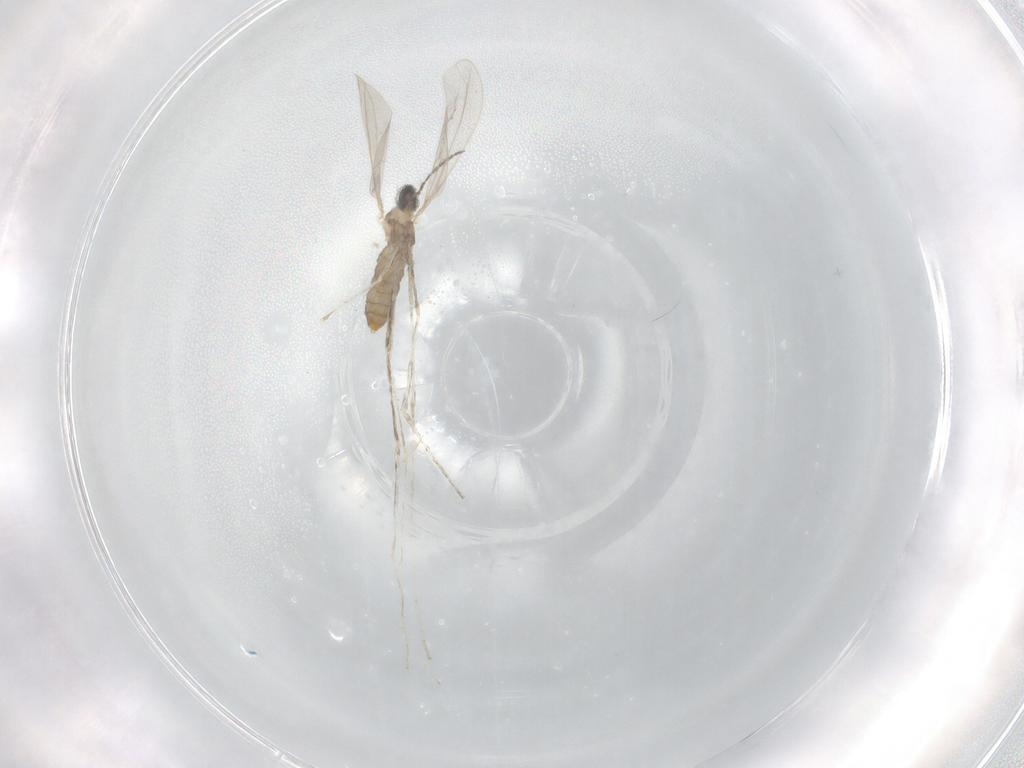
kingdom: Animalia
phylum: Arthropoda
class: Insecta
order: Diptera
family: Cecidomyiidae
